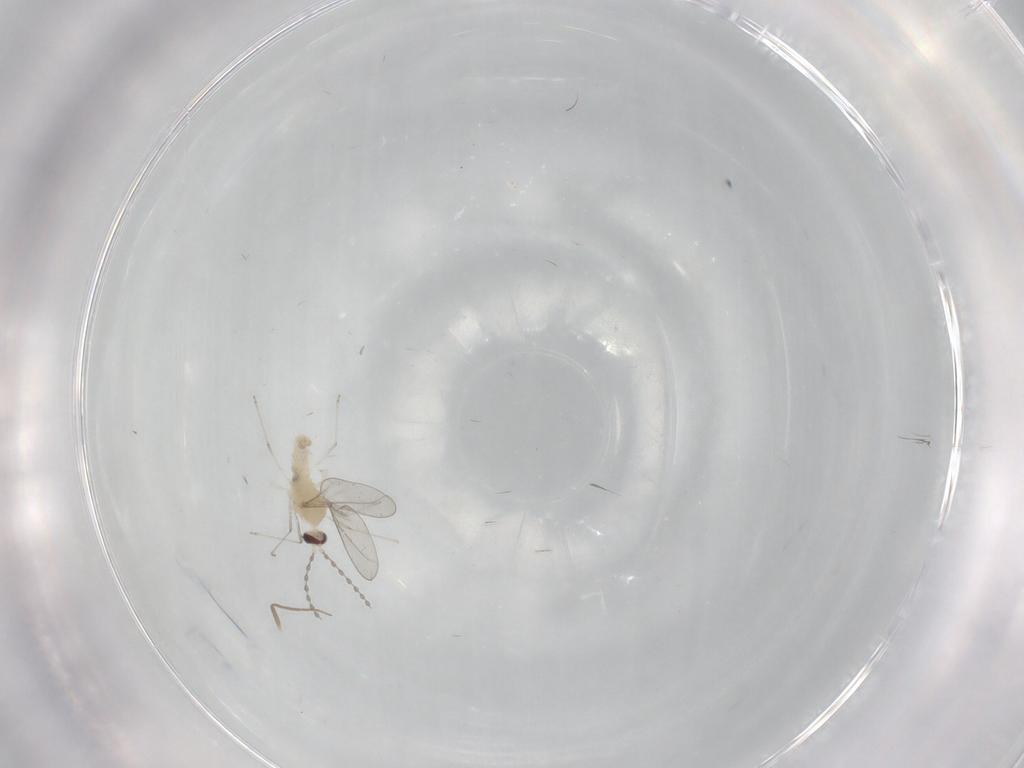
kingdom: Animalia
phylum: Arthropoda
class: Insecta
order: Diptera
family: Cecidomyiidae
